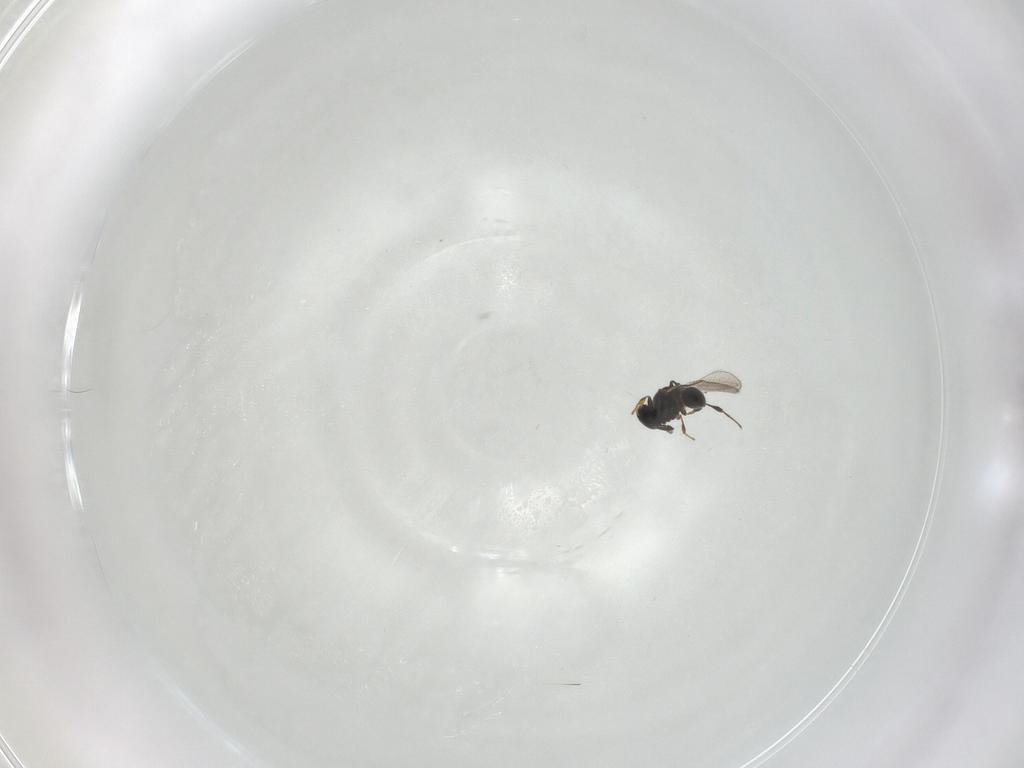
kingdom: Animalia
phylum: Arthropoda
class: Insecta
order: Hymenoptera
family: Platygastridae
